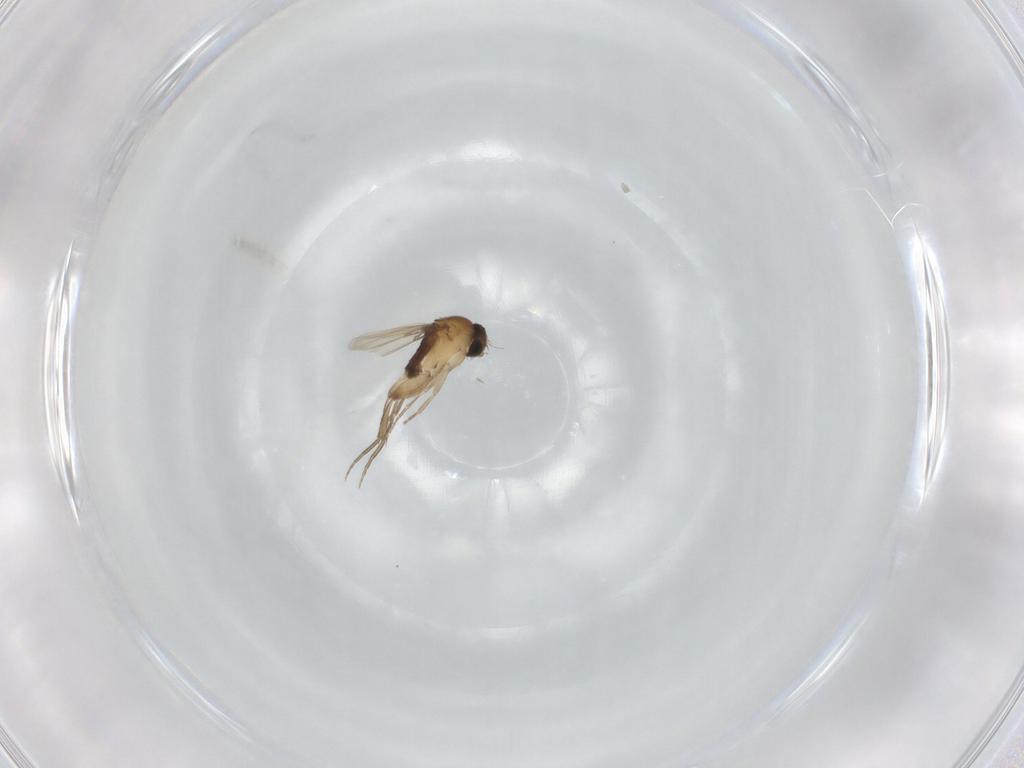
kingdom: Animalia
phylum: Arthropoda
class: Insecta
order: Diptera
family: Phoridae
